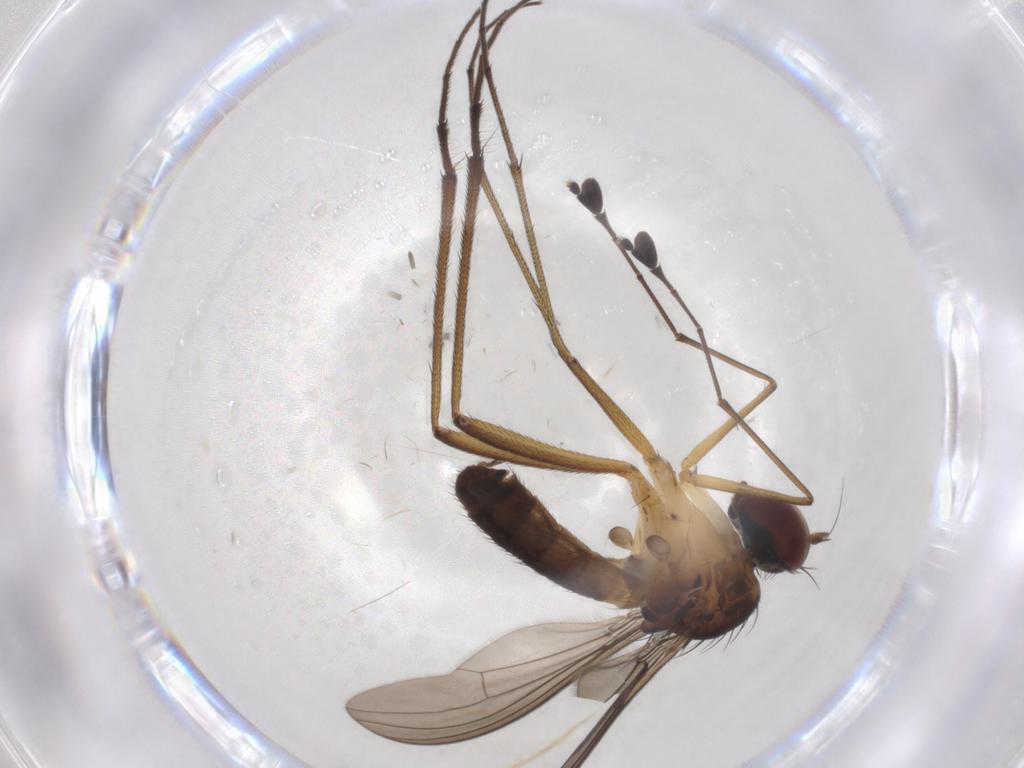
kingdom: Animalia
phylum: Arthropoda
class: Insecta
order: Diptera
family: Dolichopodidae
